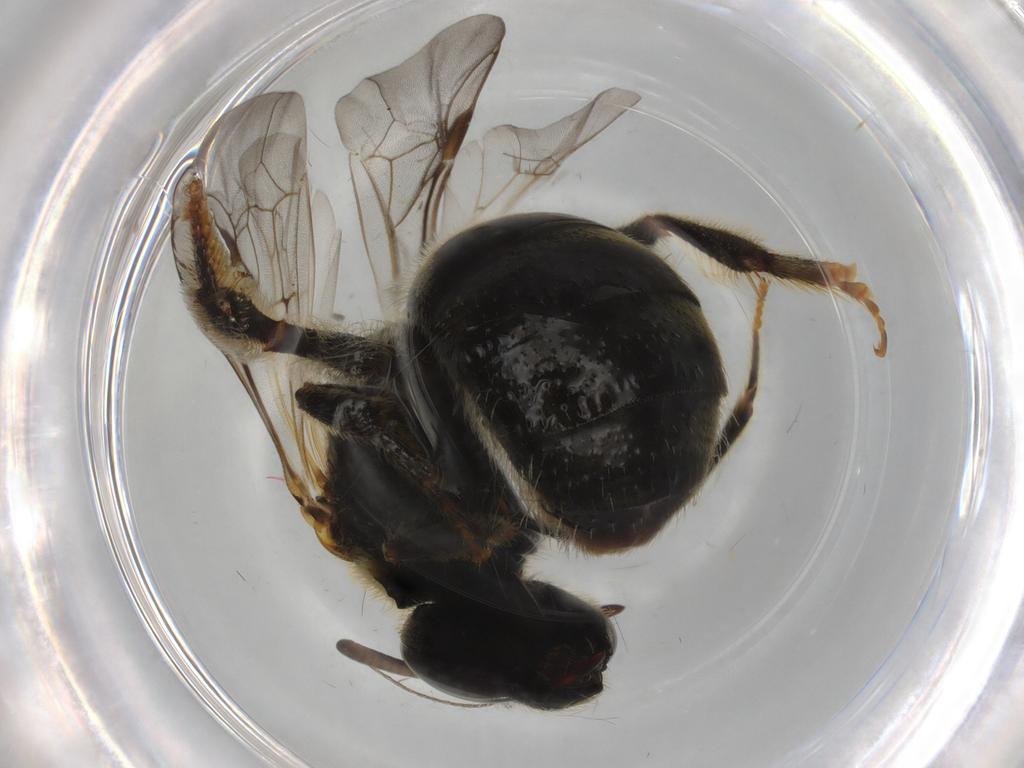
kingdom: Animalia
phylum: Arthropoda
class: Insecta
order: Hymenoptera
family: Halictidae
